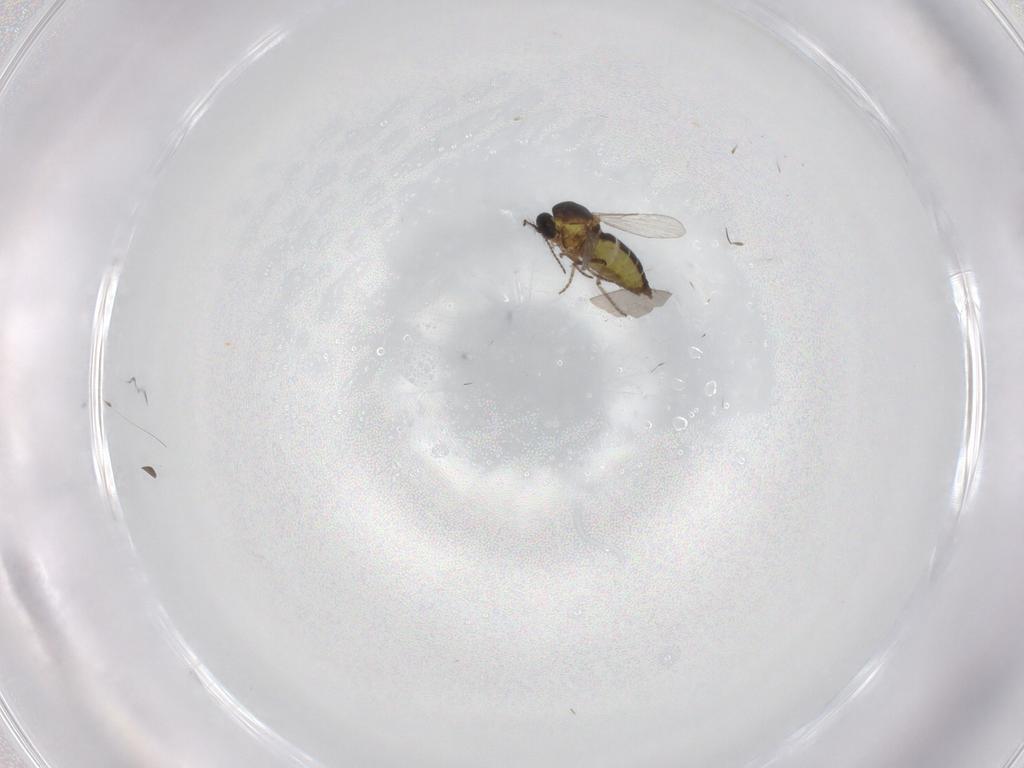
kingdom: Animalia
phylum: Arthropoda
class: Insecta
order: Diptera
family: Ceratopogonidae
